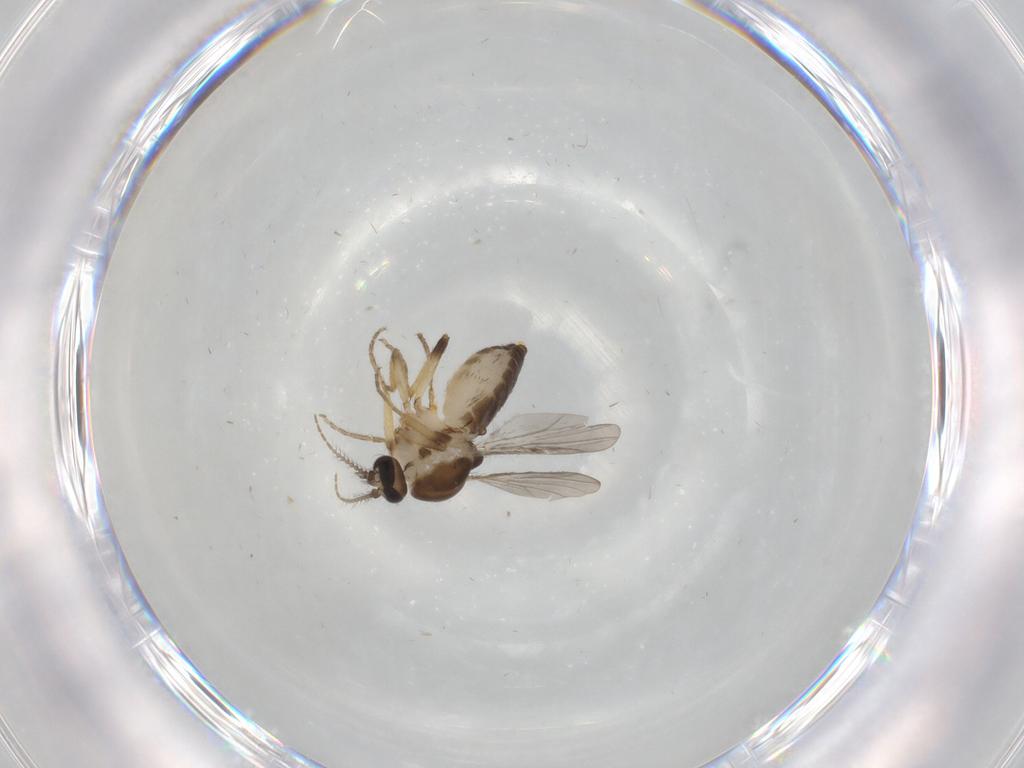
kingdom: Animalia
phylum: Arthropoda
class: Insecta
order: Diptera
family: Ceratopogonidae
